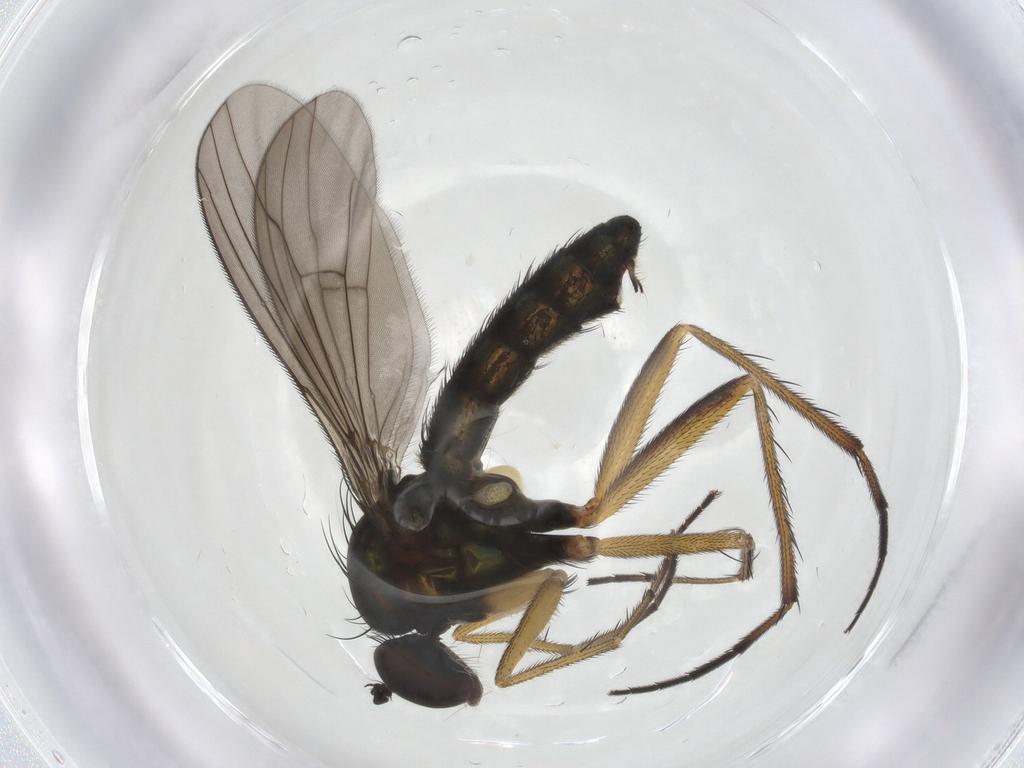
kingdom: Animalia
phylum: Arthropoda
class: Insecta
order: Diptera
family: Dolichopodidae
